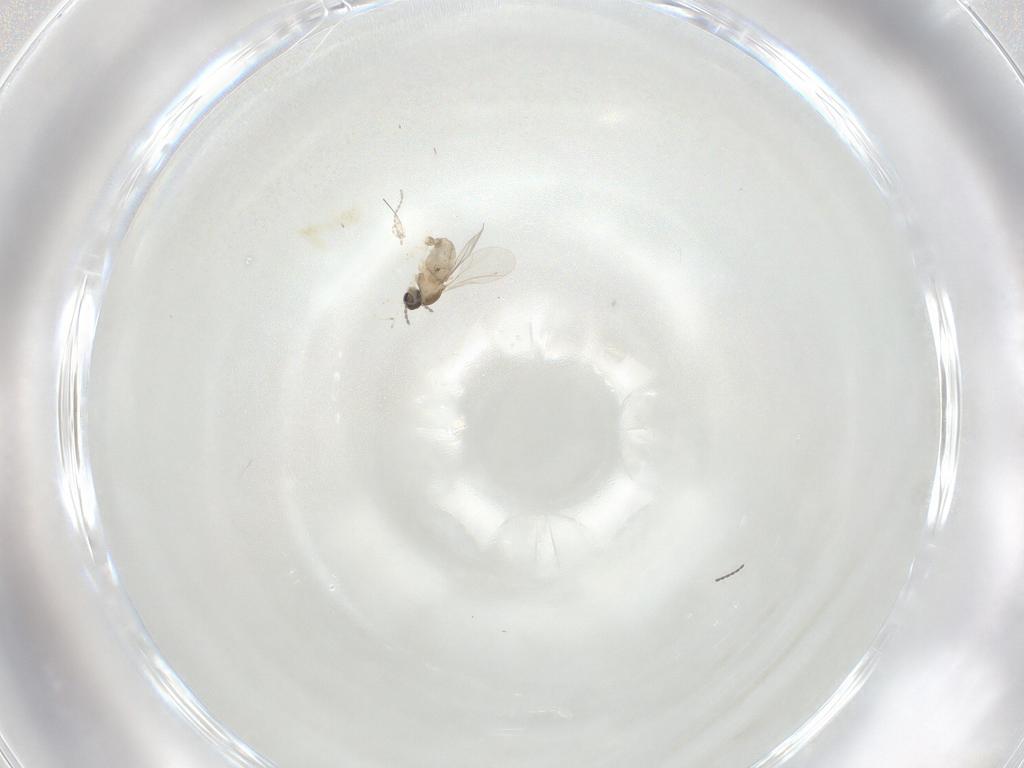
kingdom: Animalia
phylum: Arthropoda
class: Insecta
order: Diptera
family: Cecidomyiidae
